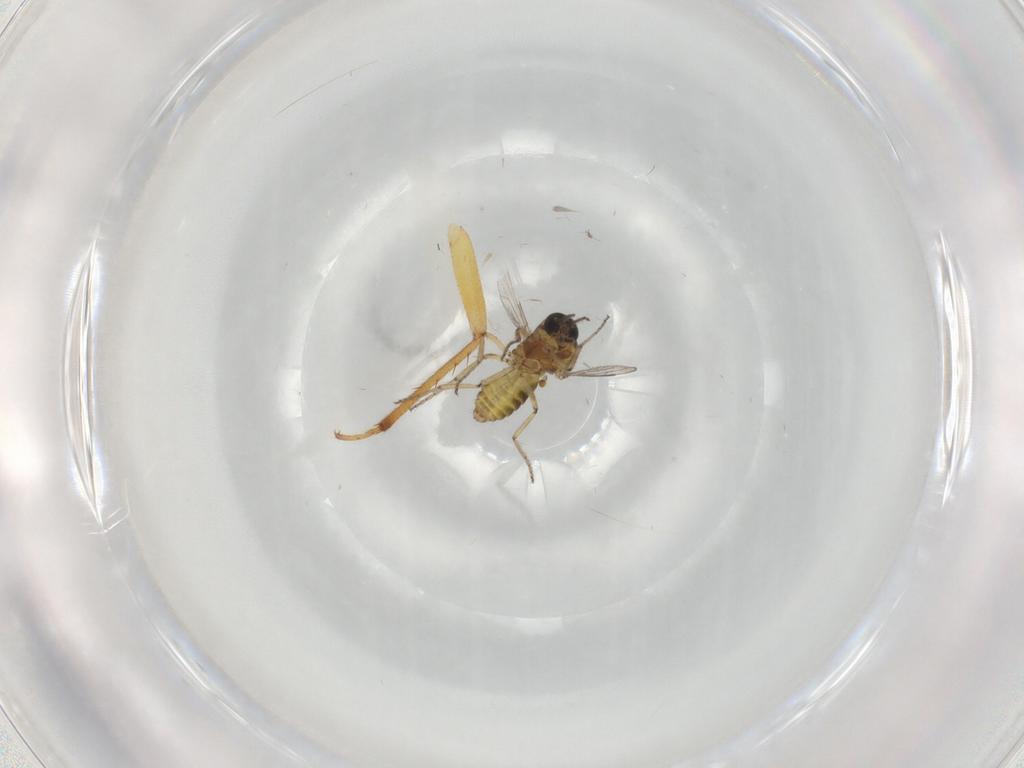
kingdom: Animalia
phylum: Arthropoda
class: Insecta
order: Diptera
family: Ceratopogonidae
